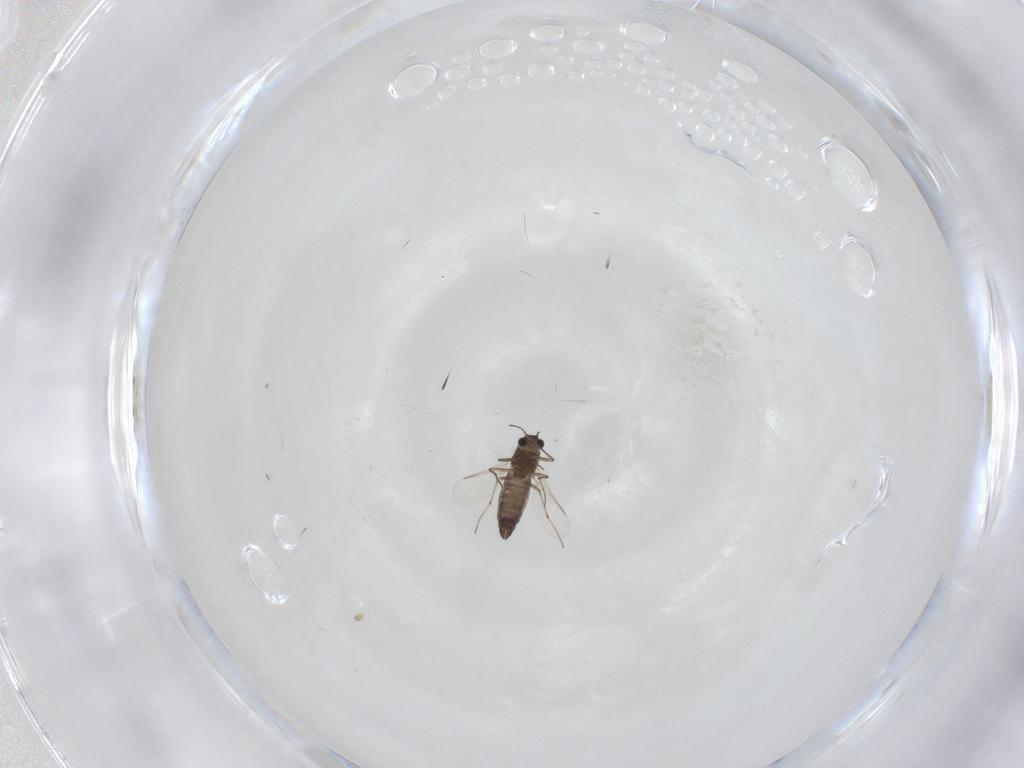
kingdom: Animalia
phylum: Arthropoda
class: Insecta
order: Diptera
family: Chironomidae
